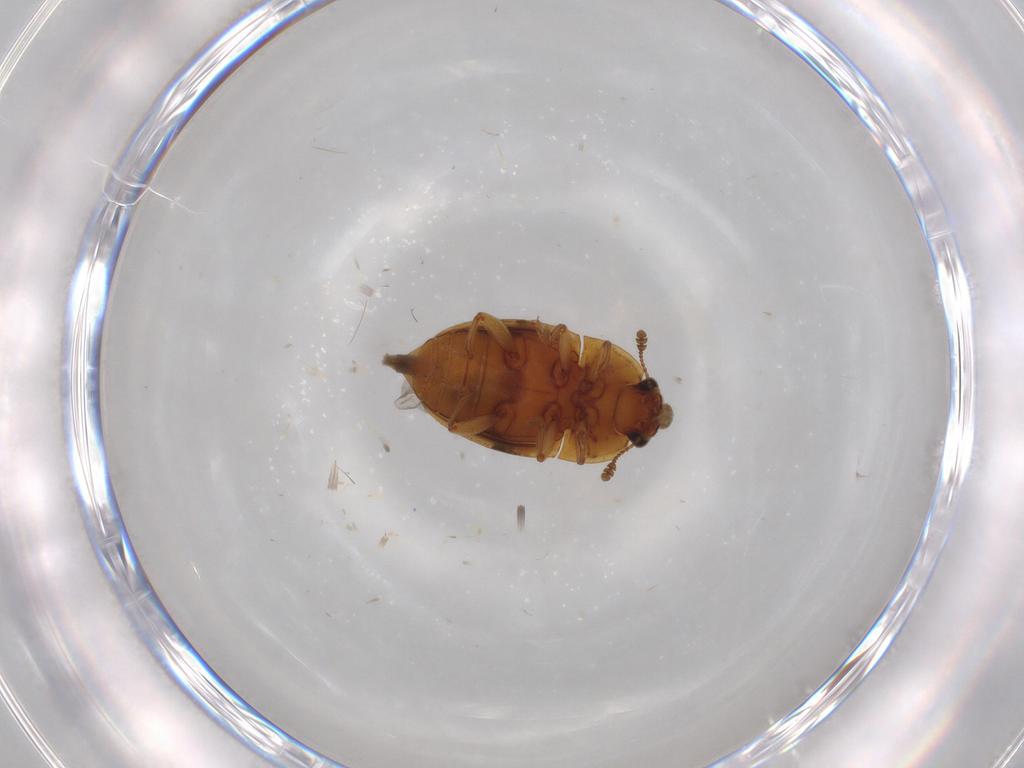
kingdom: Animalia
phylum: Arthropoda
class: Insecta
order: Coleoptera
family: Nitidulidae
